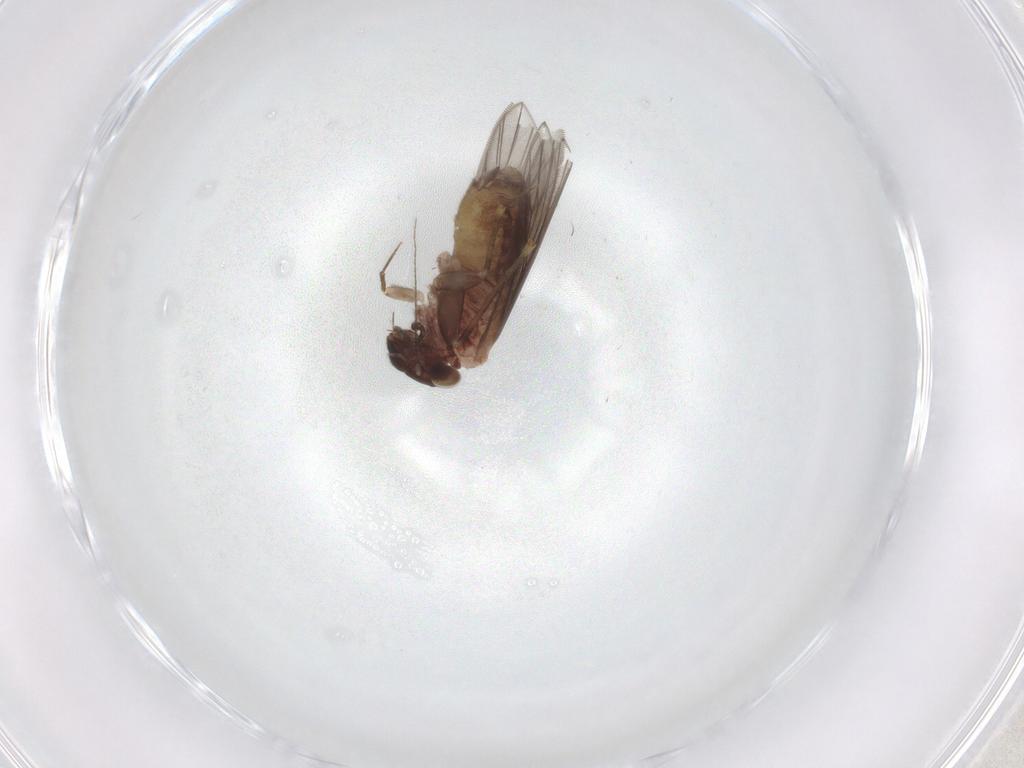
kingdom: Animalia
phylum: Arthropoda
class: Insecta
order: Psocodea
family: Lepidopsocidae
